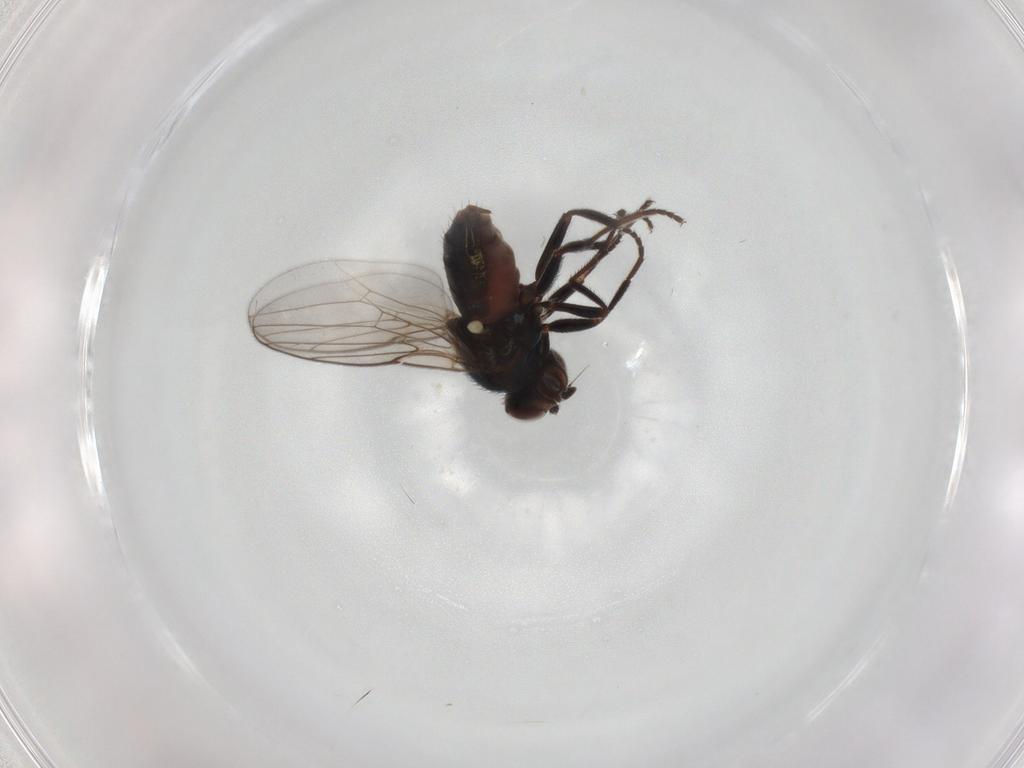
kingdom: Animalia
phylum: Arthropoda
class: Insecta
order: Diptera
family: Chloropidae
